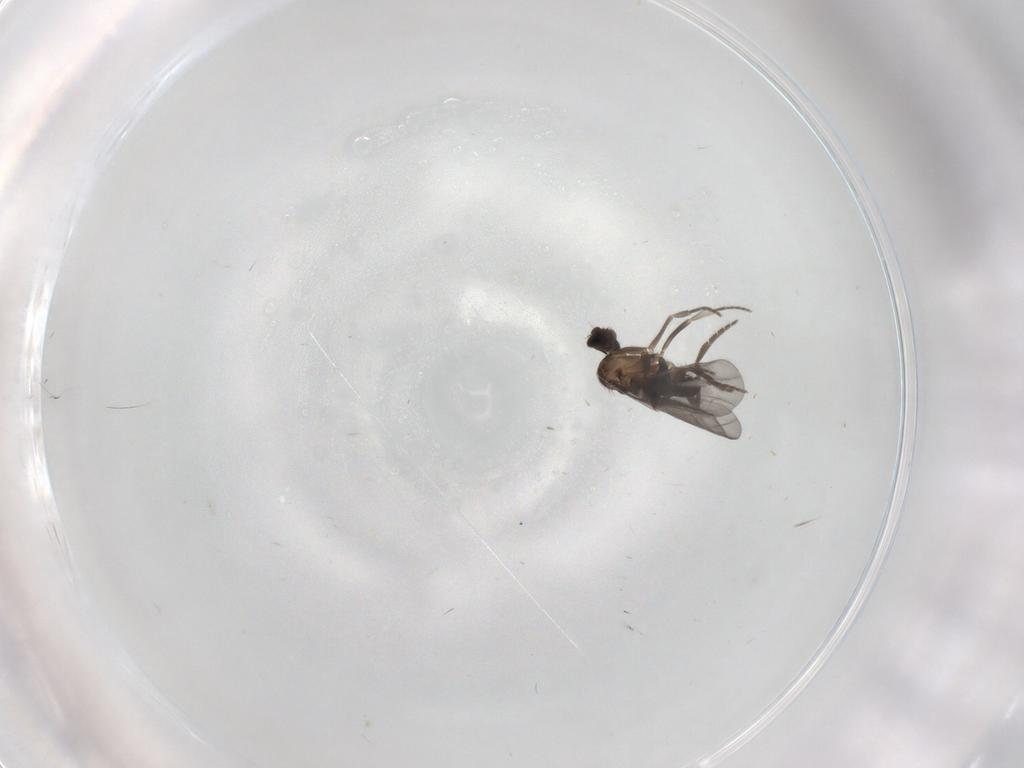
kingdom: Animalia
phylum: Arthropoda
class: Insecta
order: Diptera
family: Phoridae
